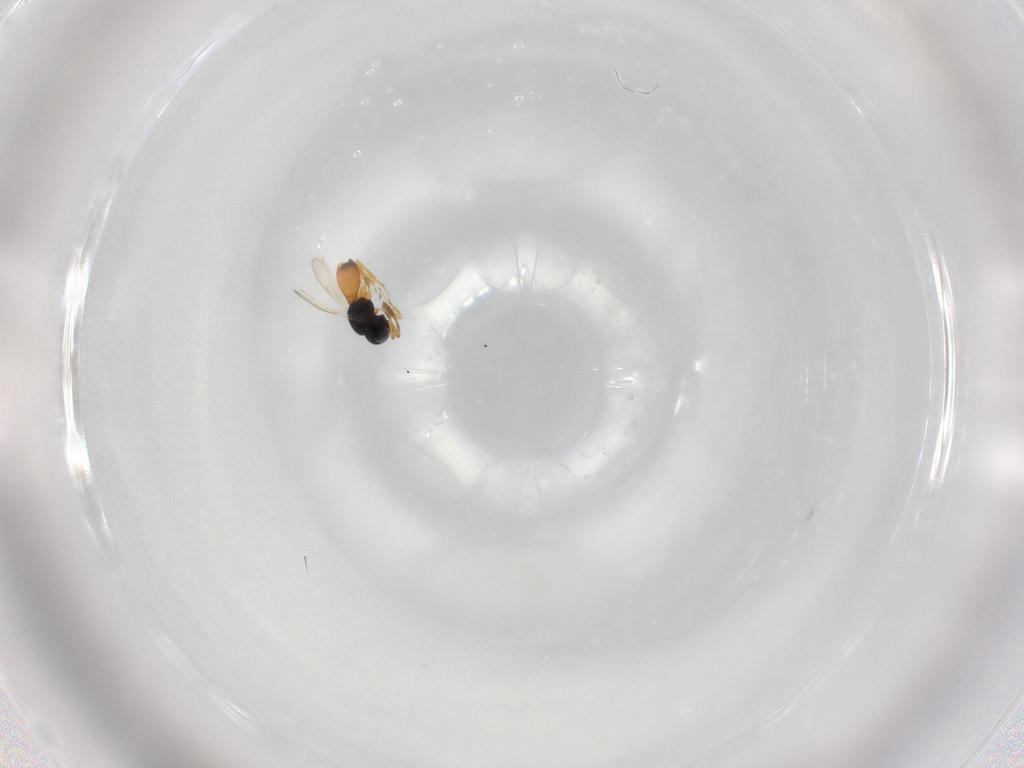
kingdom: Animalia
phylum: Arthropoda
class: Insecta
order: Hymenoptera
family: Scelionidae
